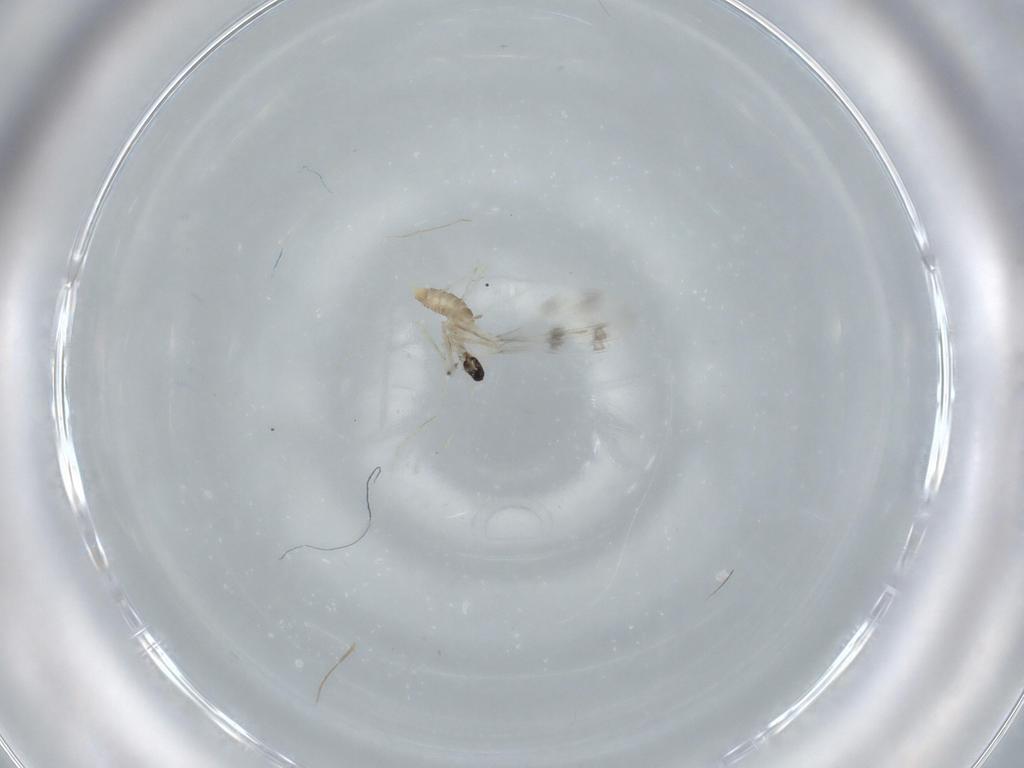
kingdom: Animalia
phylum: Arthropoda
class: Insecta
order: Diptera
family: Cecidomyiidae
